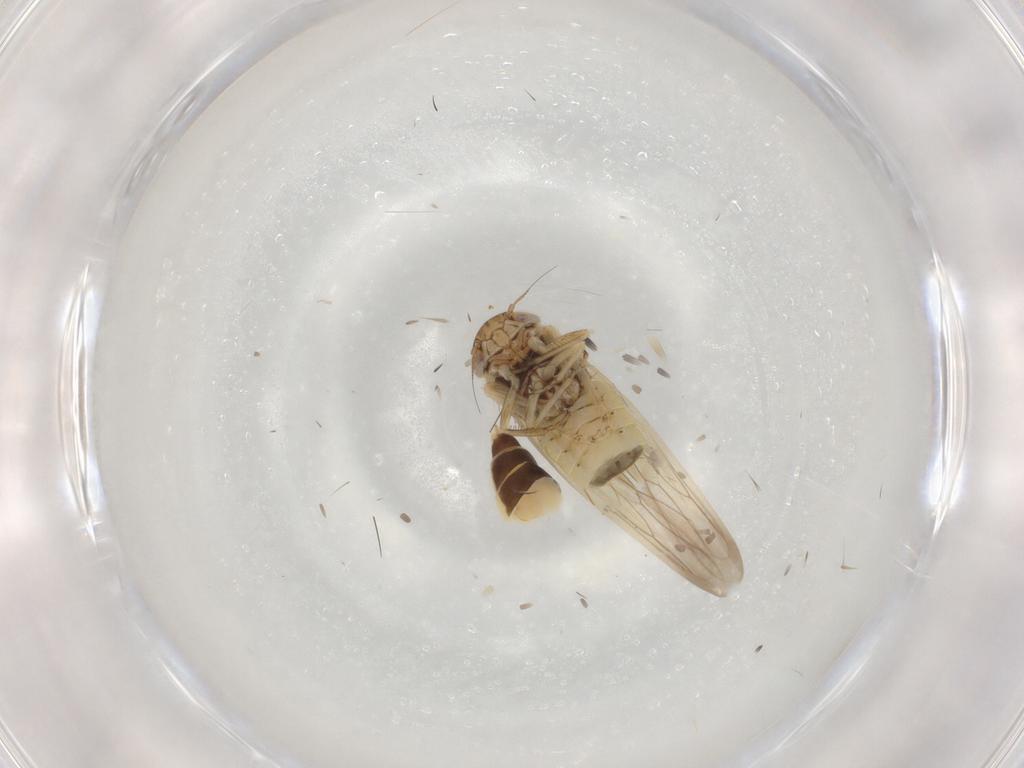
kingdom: Animalia
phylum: Arthropoda
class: Insecta
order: Hemiptera
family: Cicadellidae
